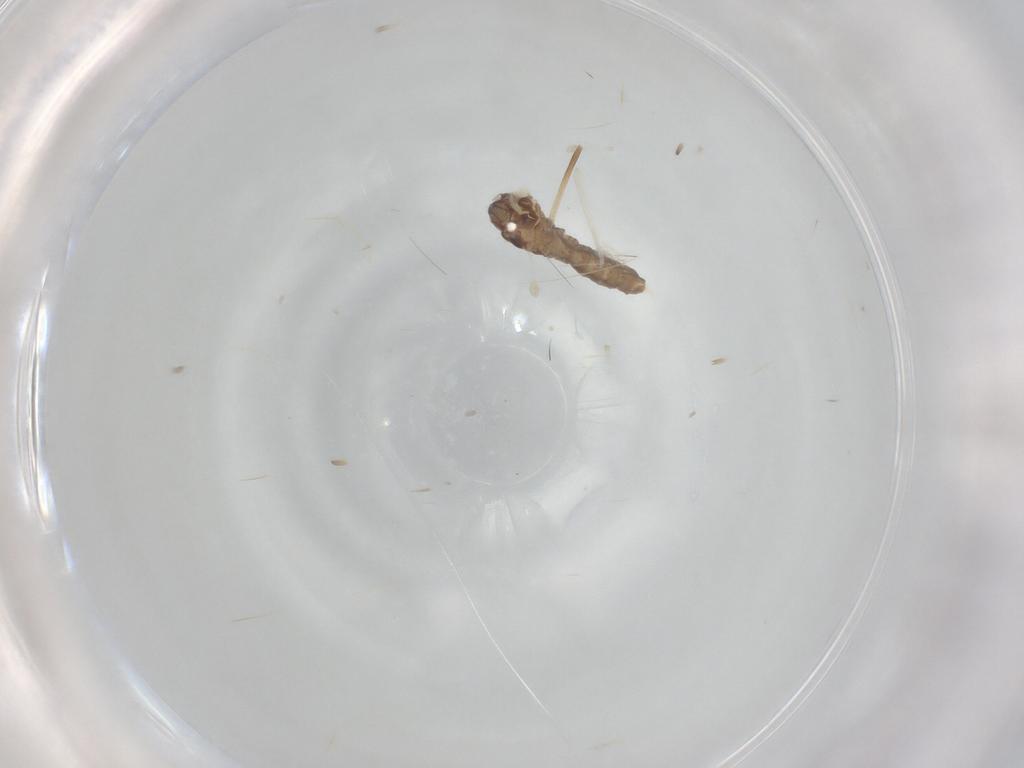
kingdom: Animalia
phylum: Arthropoda
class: Insecta
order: Diptera
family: Cecidomyiidae
